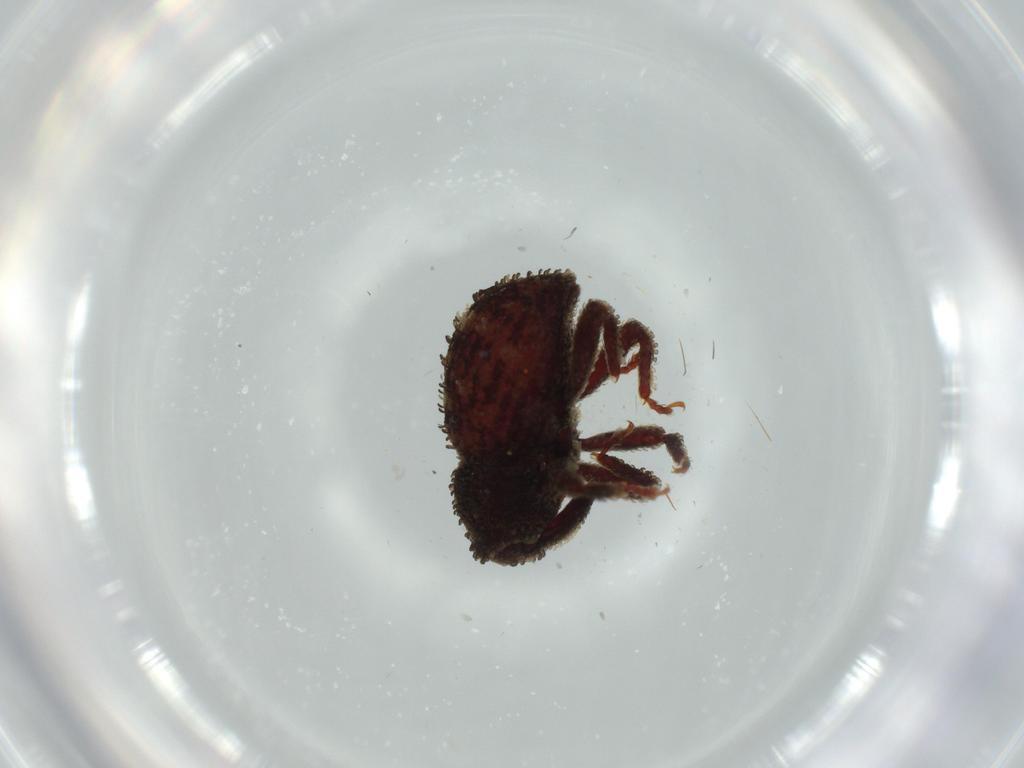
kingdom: Animalia
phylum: Arthropoda
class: Insecta
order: Coleoptera
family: Curculionidae
